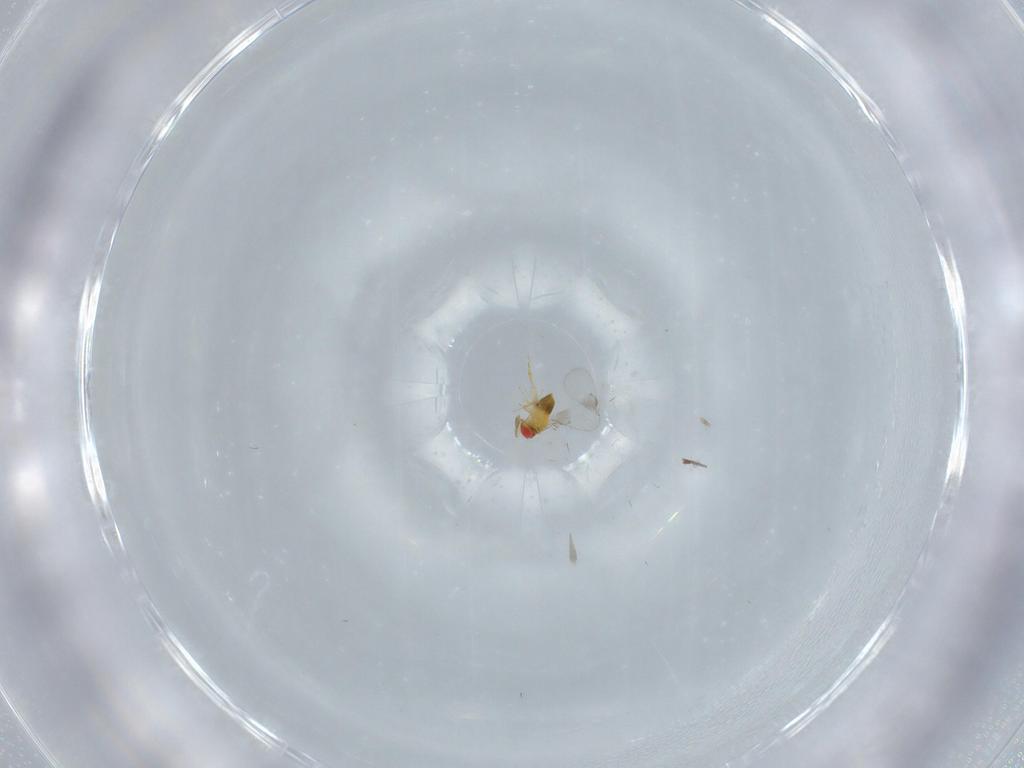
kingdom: Animalia
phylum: Arthropoda
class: Insecta
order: Hymenoptera
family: Trichogrammatidae
